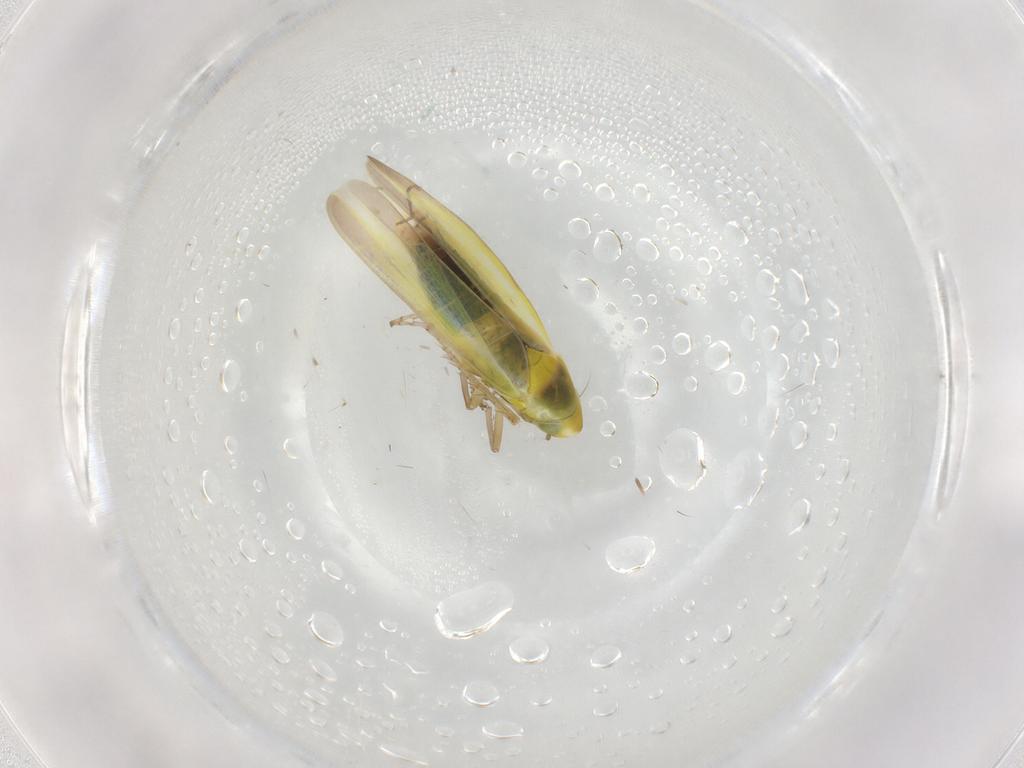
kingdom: Animalia
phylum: Arthropoda
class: Insecta
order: Hemiptera
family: Cicadellidae
